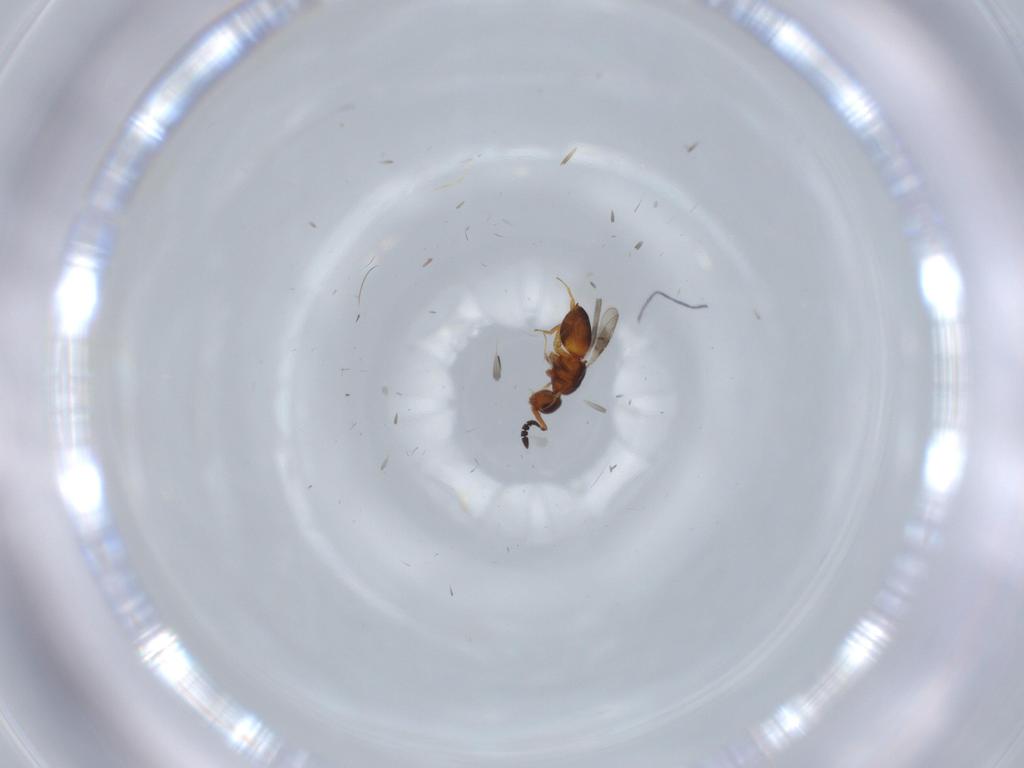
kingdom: Animalia
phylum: Arthropoda
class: Insecta
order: Hymenoptera
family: Ceraphronidae
